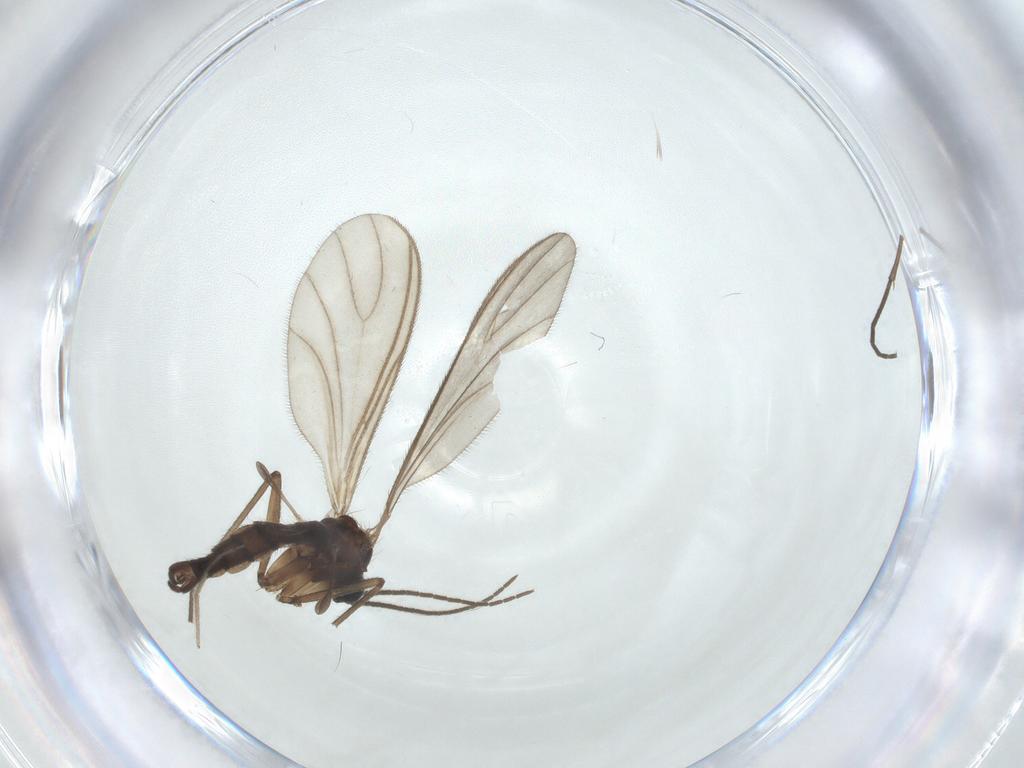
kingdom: Animalia
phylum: Arthropoda
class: Insecta
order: Diptera
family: Sciaridae
